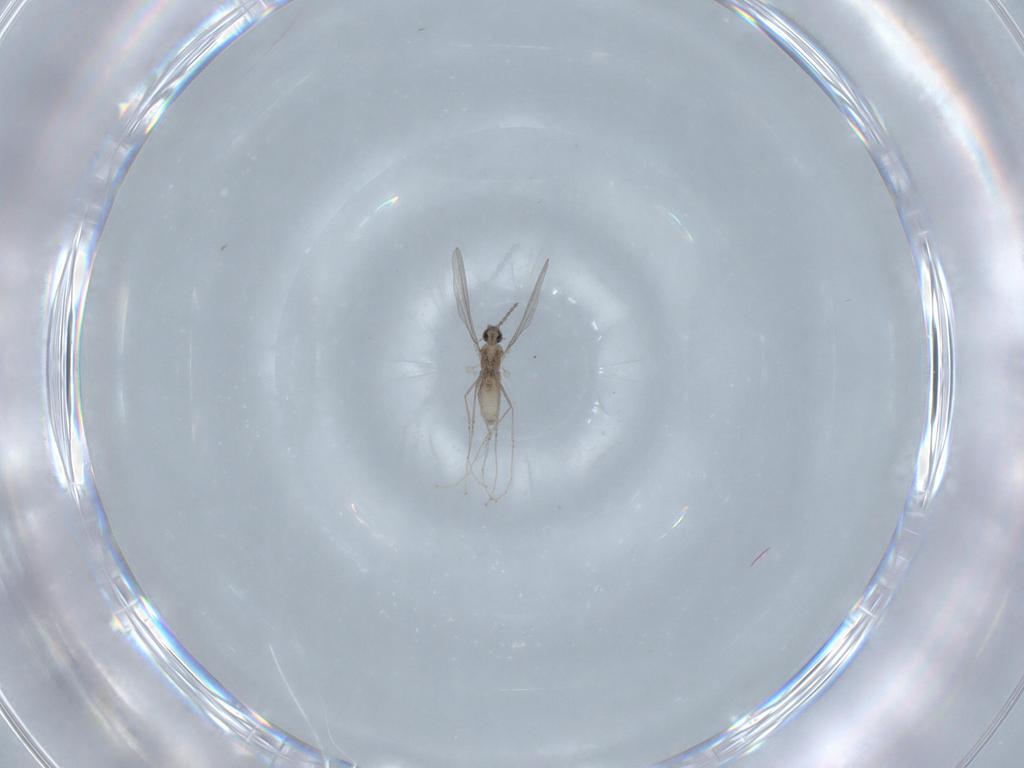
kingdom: Animalia
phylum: Arthropoda
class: Insecta
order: Diptera
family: Cecidomyiidae
